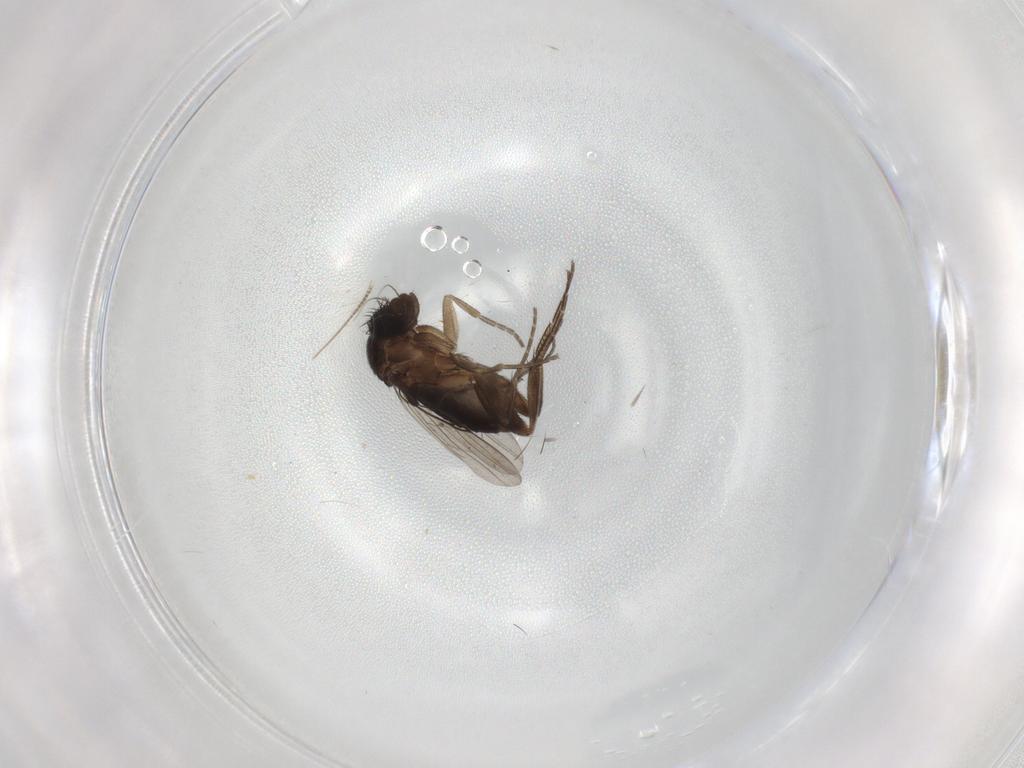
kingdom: Animalia
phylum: Arthropoda
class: Insecta
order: Diptera
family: Phoridae
